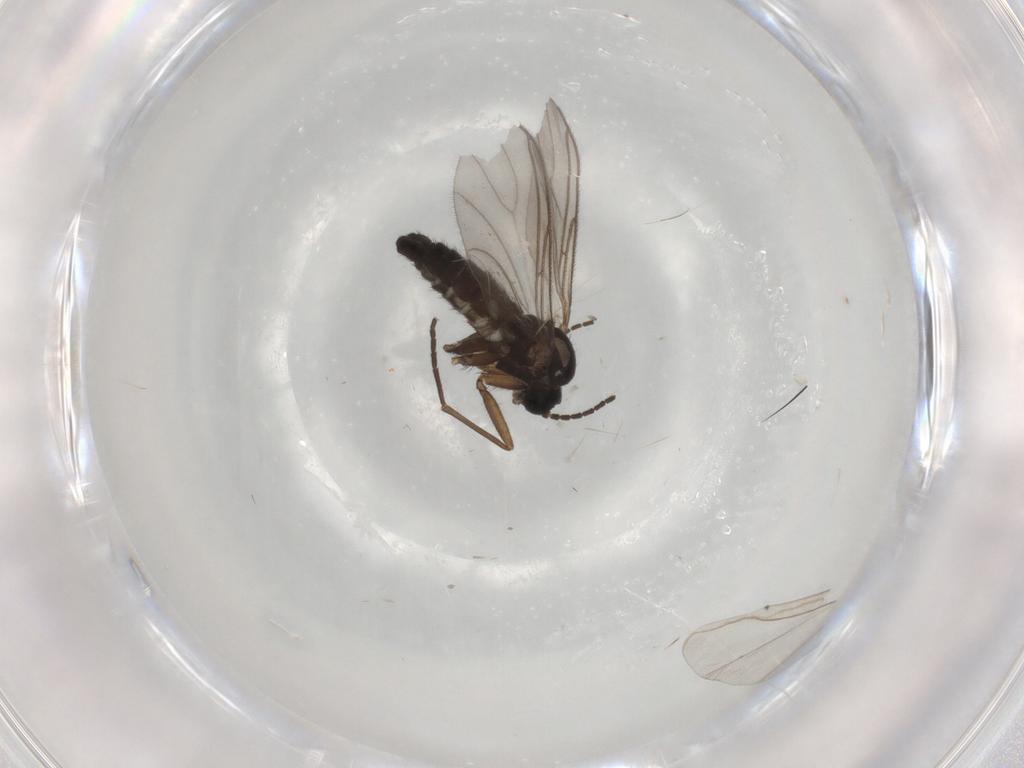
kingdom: Animalia
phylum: Arthropoda
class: Insecta
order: Diptera
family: Sciaridae
